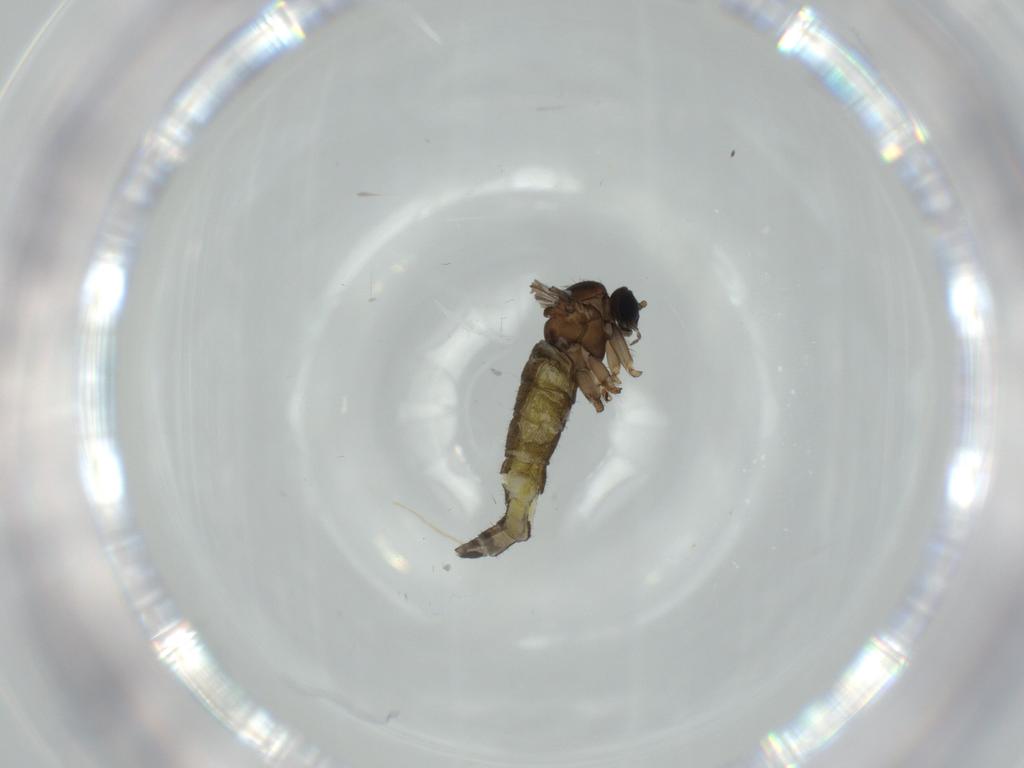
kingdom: Animalia
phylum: Arthropoda
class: Insecta
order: Diptera
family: Sciaridae
